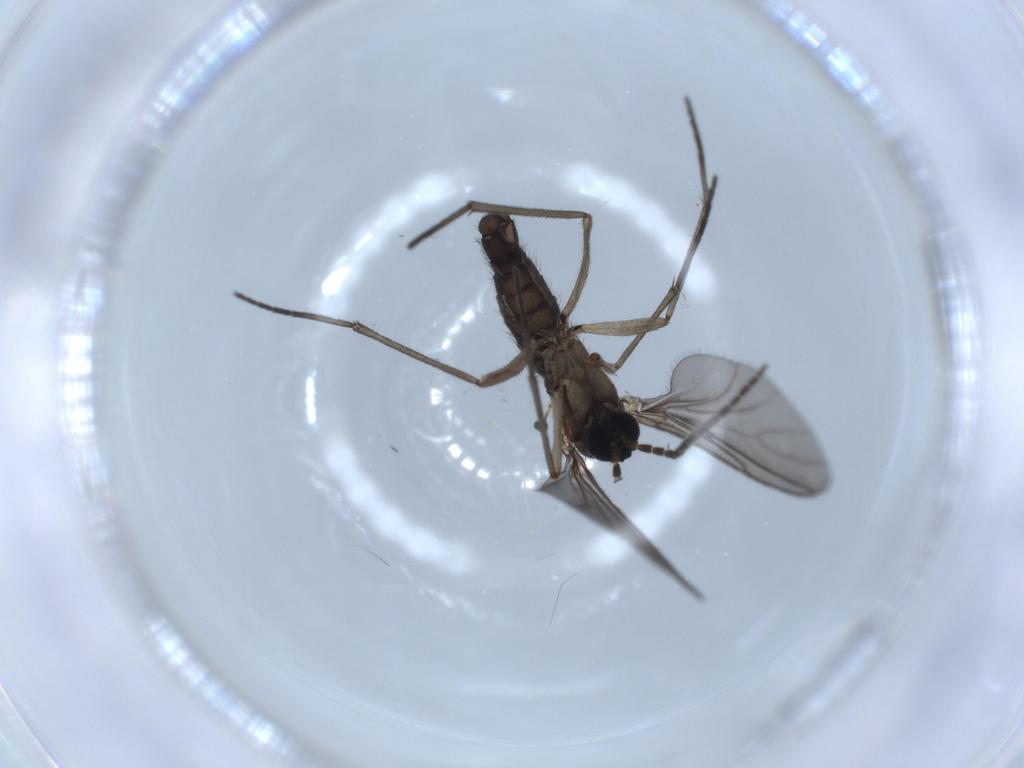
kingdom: Animalia
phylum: Arthropoda
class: Insecta
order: Diptera
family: Sciaridae
